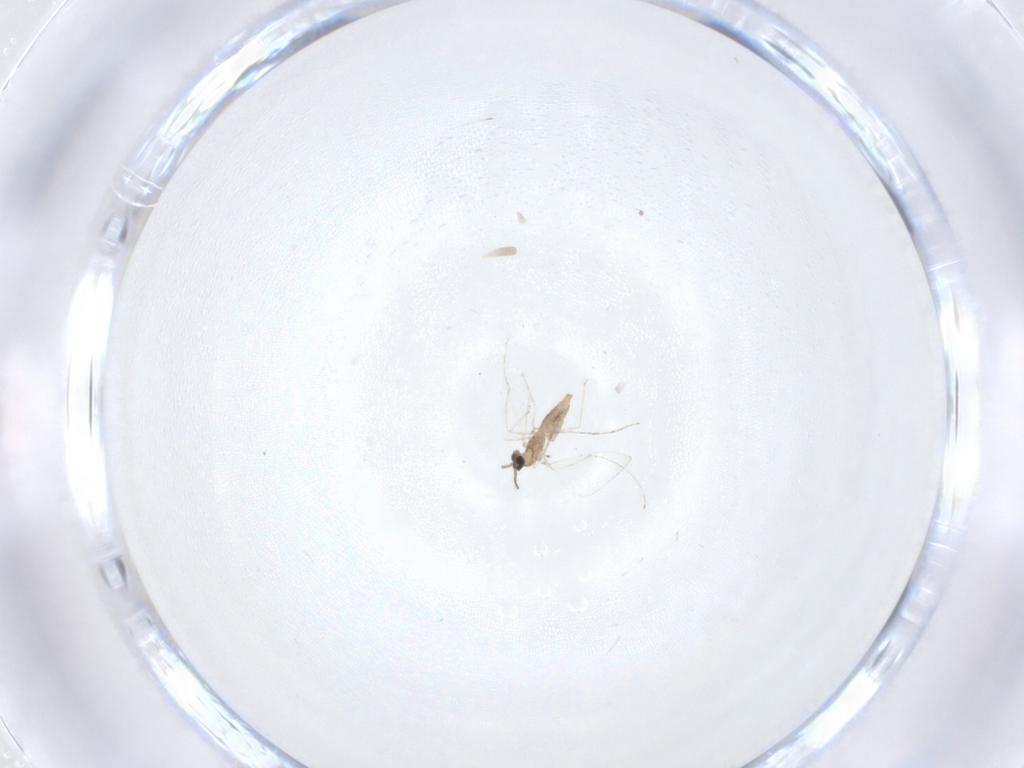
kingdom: Animalia
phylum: Arthropoda
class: Insecta
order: Diptera
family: Cecidomyiidae
